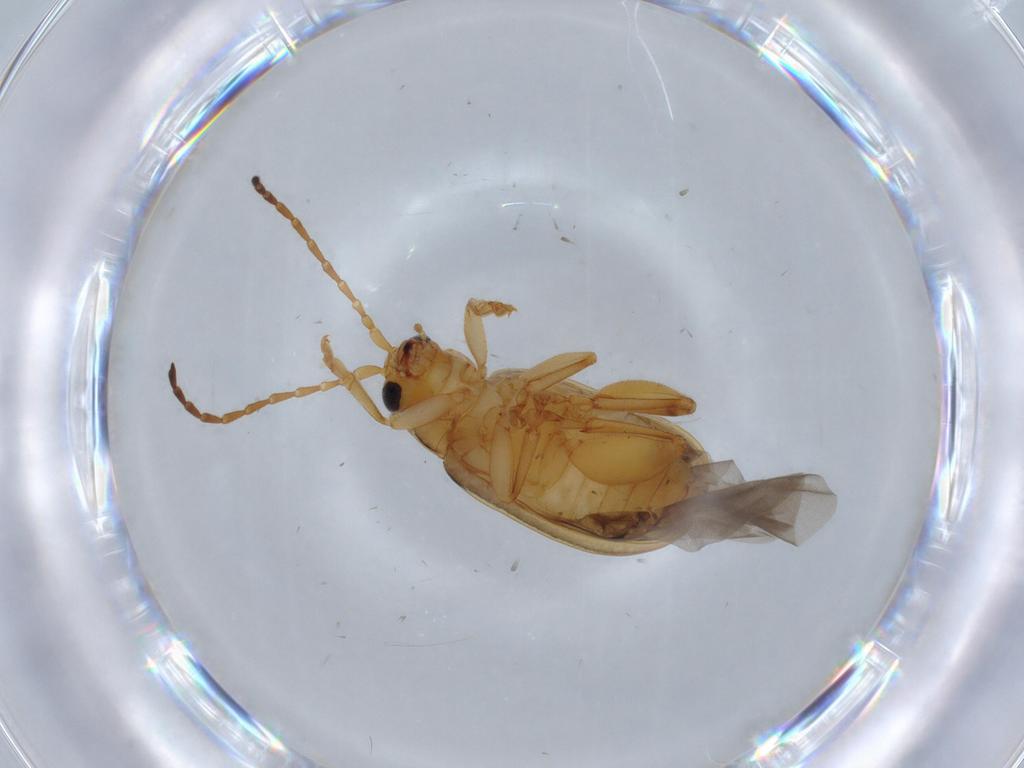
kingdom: Animalia
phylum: Arthropoda
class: Insecta
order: Coleoptera
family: Chrysomelidae
